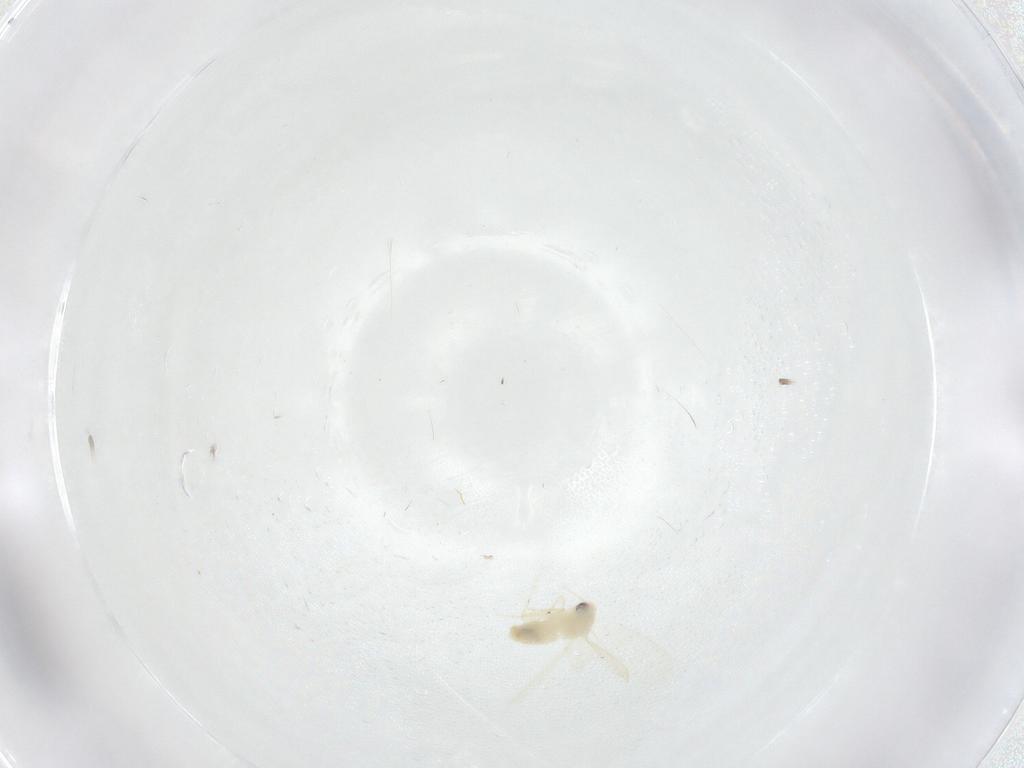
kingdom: Animalia
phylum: Arthropoda
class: Insecta
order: Hemiptera
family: Aleyrodidae
